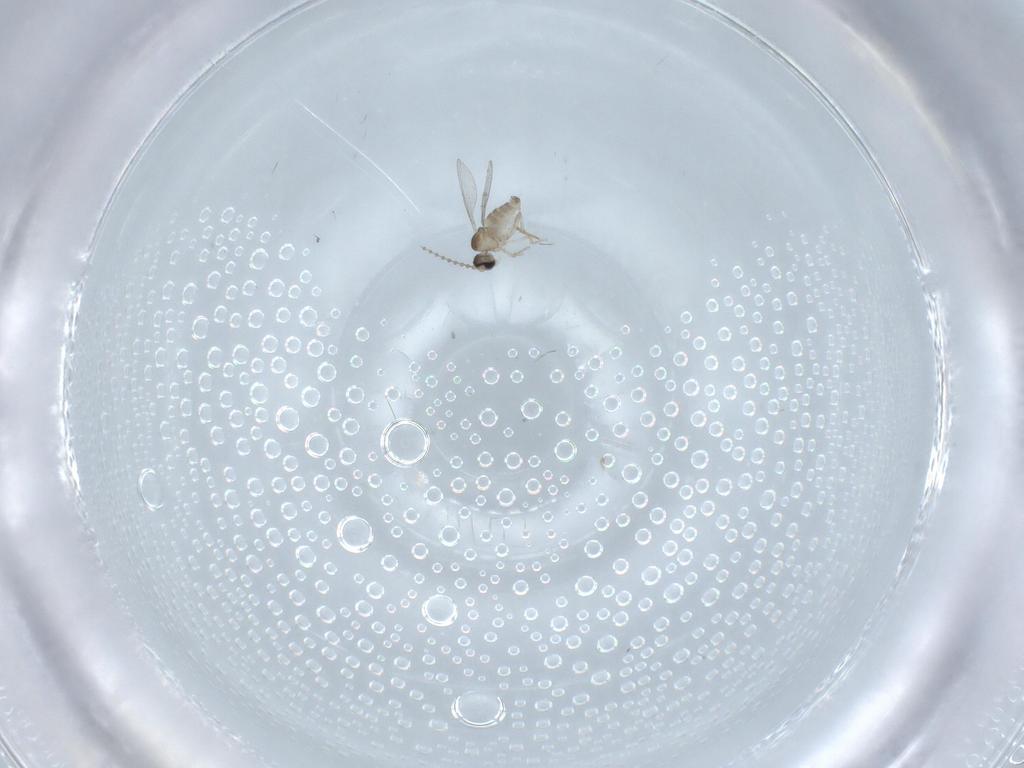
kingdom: Animalia
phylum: Arthropoda
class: Insecta
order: Diptera
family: Cecidomyiidae
